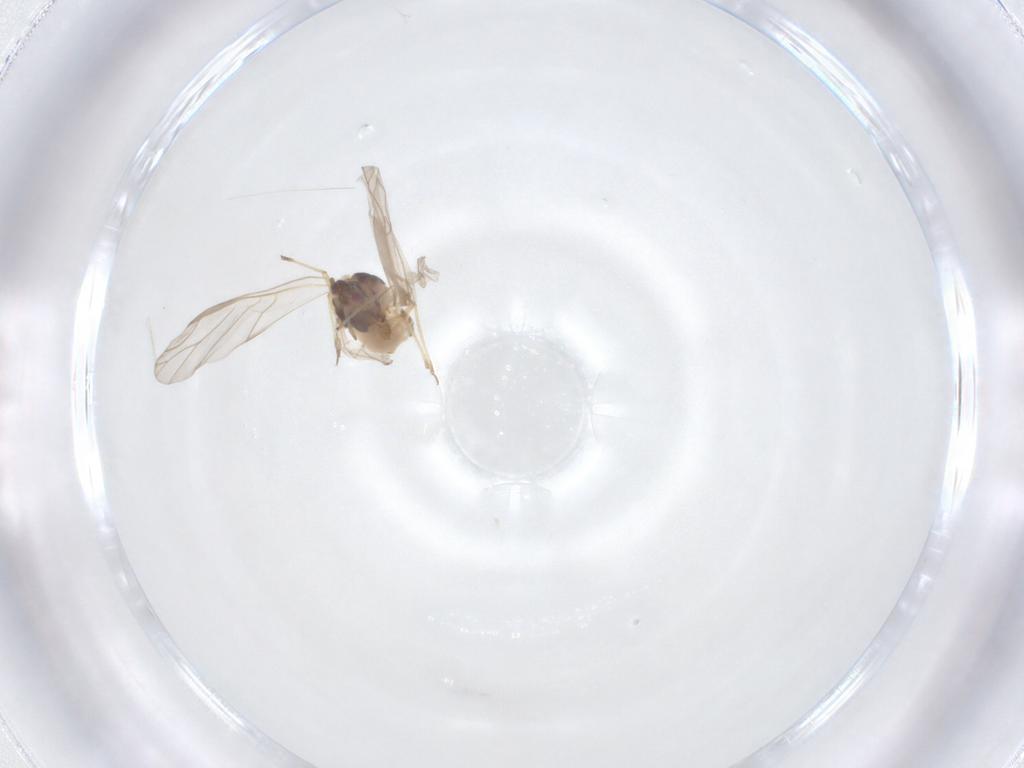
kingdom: Animalia
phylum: Arthropoda
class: Insecta
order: Hemiptera
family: Aphididae
